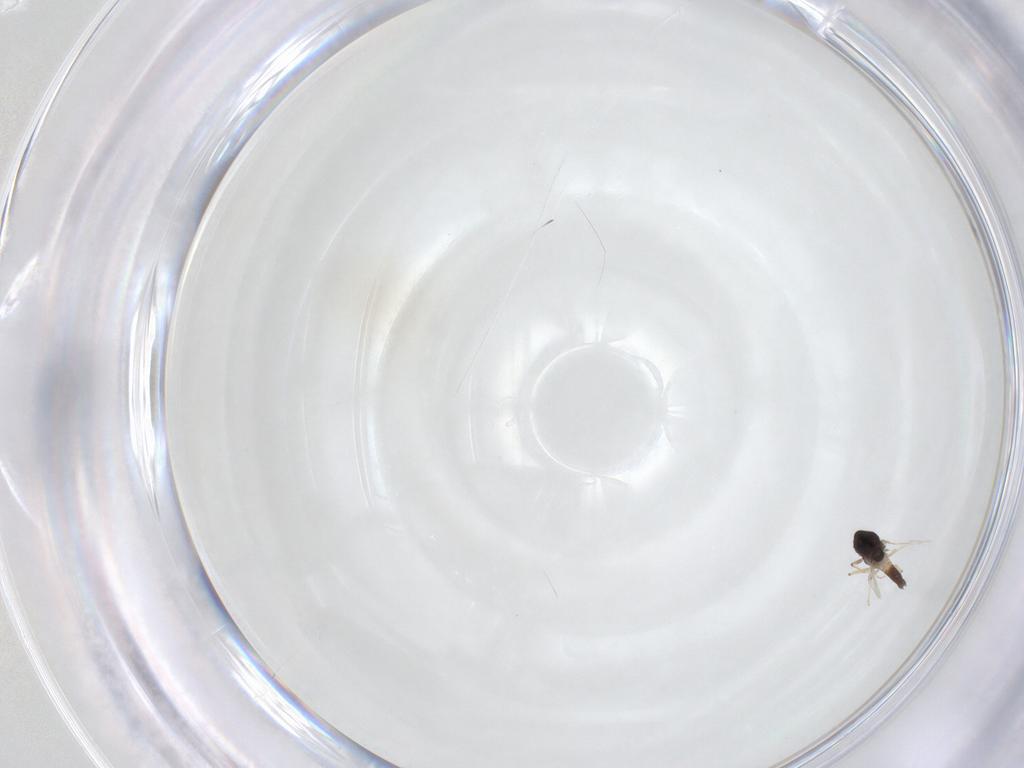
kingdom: Animalia
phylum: Arthropoda
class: Insecta
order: Diptera
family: Chironomidae
